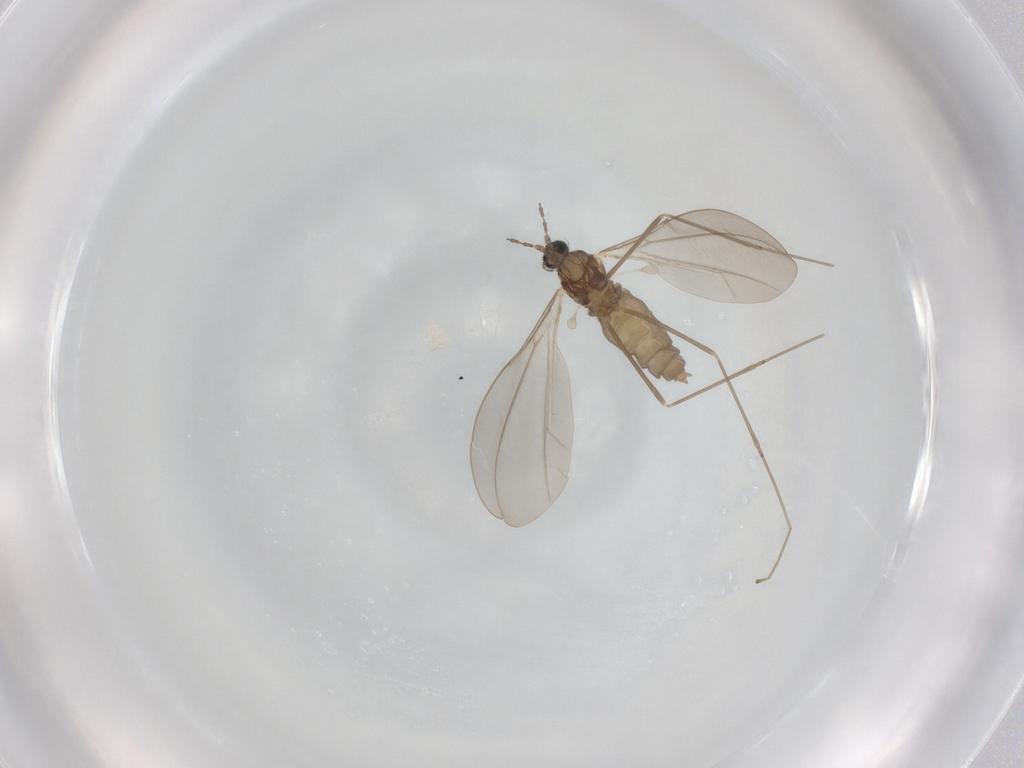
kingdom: Animalia
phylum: Arthropoda
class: Insecta
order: Diptera
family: Cecidomyiidae
